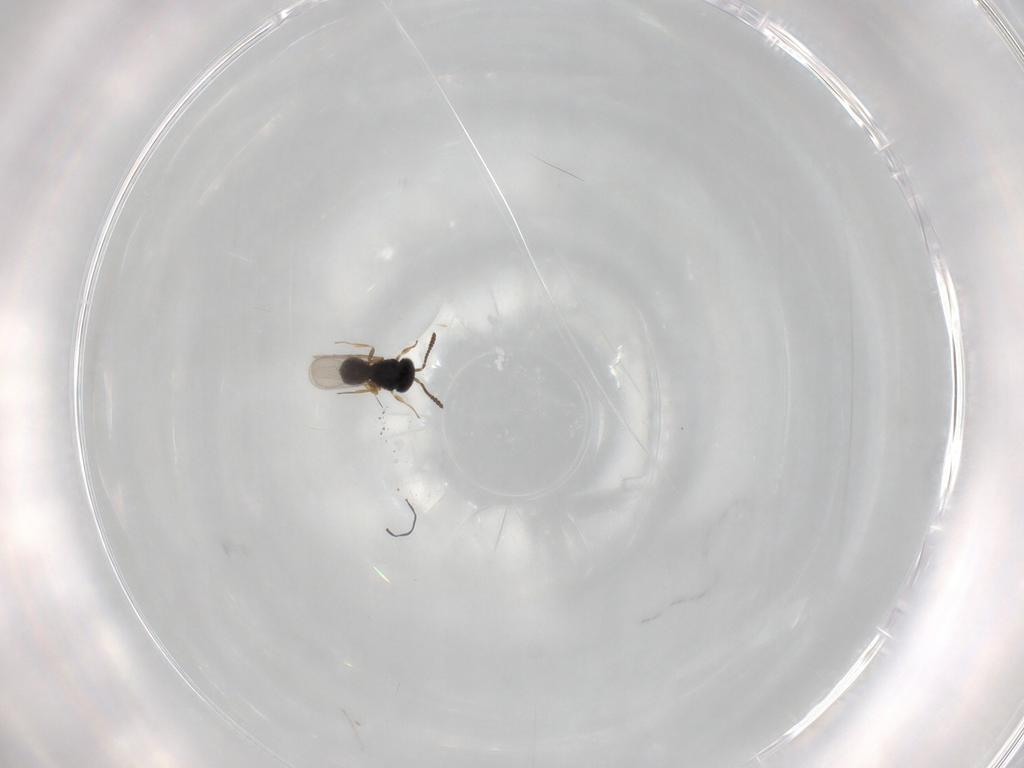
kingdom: Animalia
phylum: Arthropoda
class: Insecta
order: Hymenoptera
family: Scelionidae
